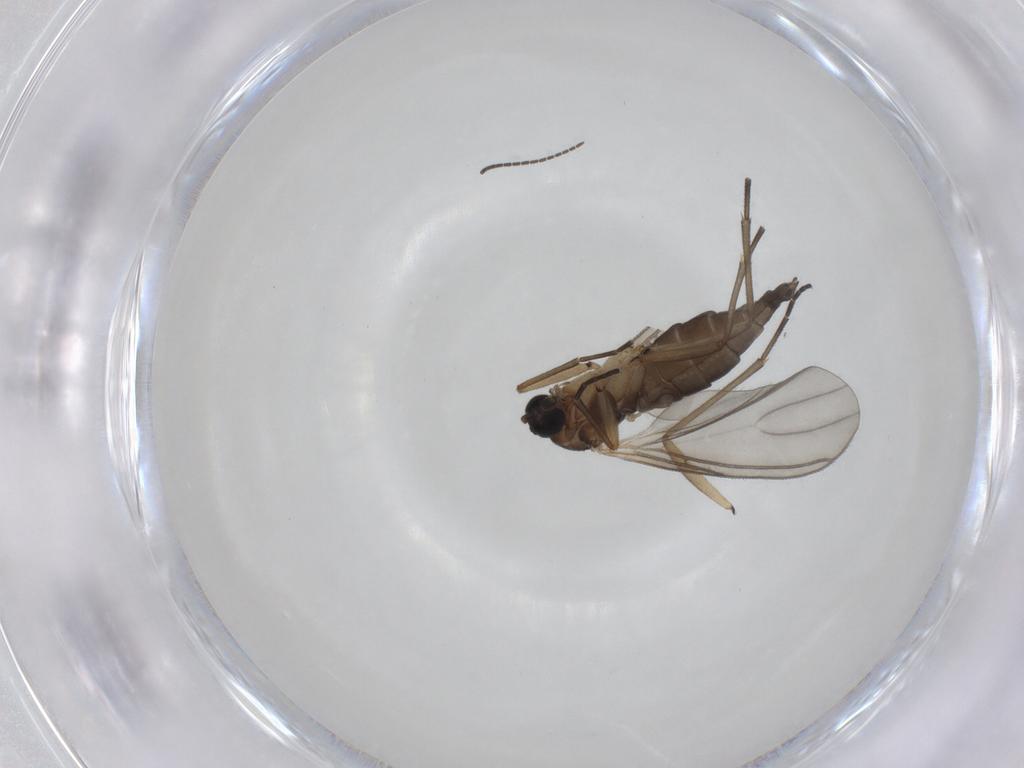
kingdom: Animalia
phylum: Arthropoda
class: Insecta
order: Diptera
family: Sciaridae
